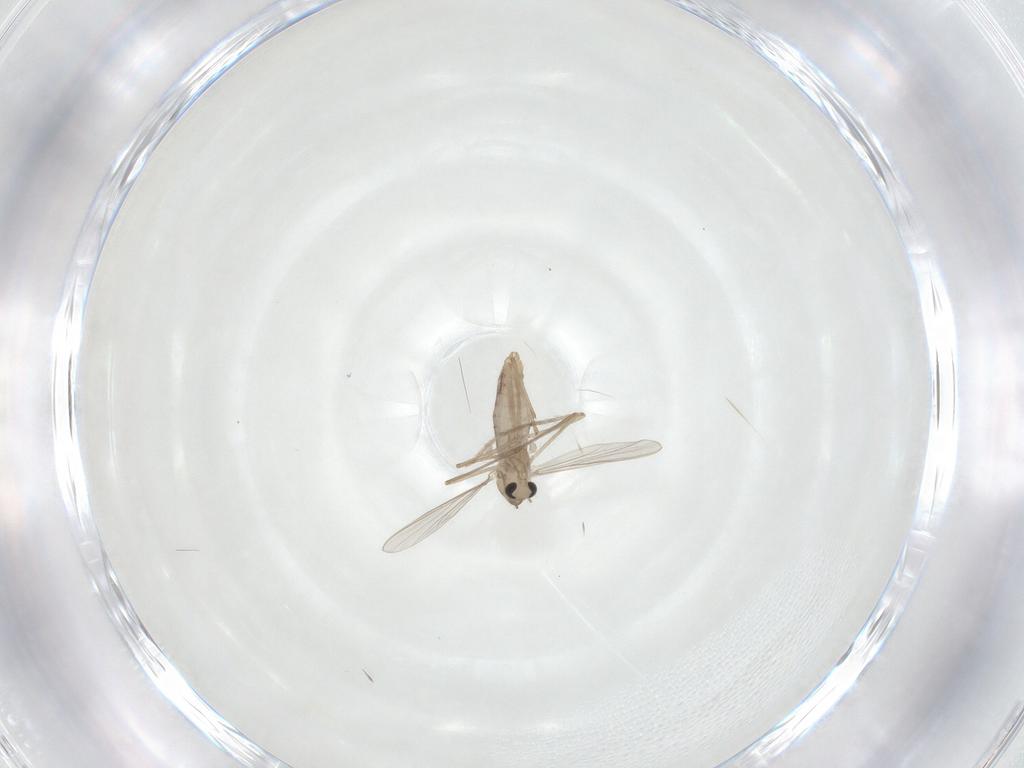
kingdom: Animalia
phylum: Arthropoda
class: Insecta
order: Diptera
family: Chironomidae
